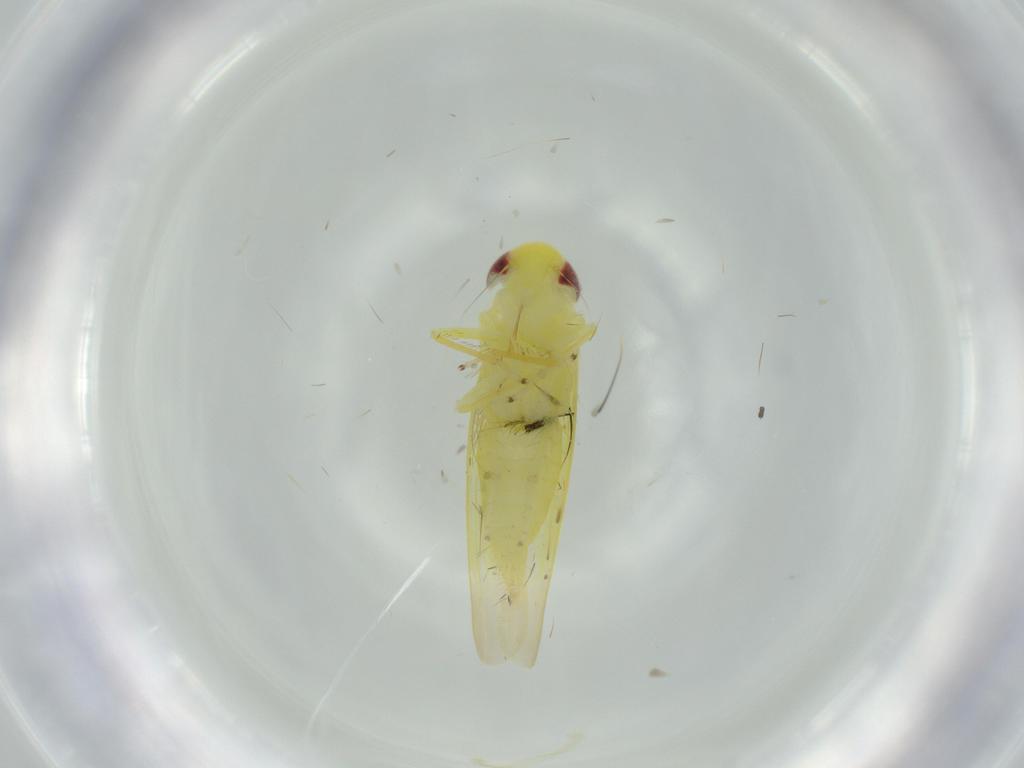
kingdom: Animalia
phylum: Arthropoda
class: Insecta
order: Hemiptera
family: Cicadellidae
